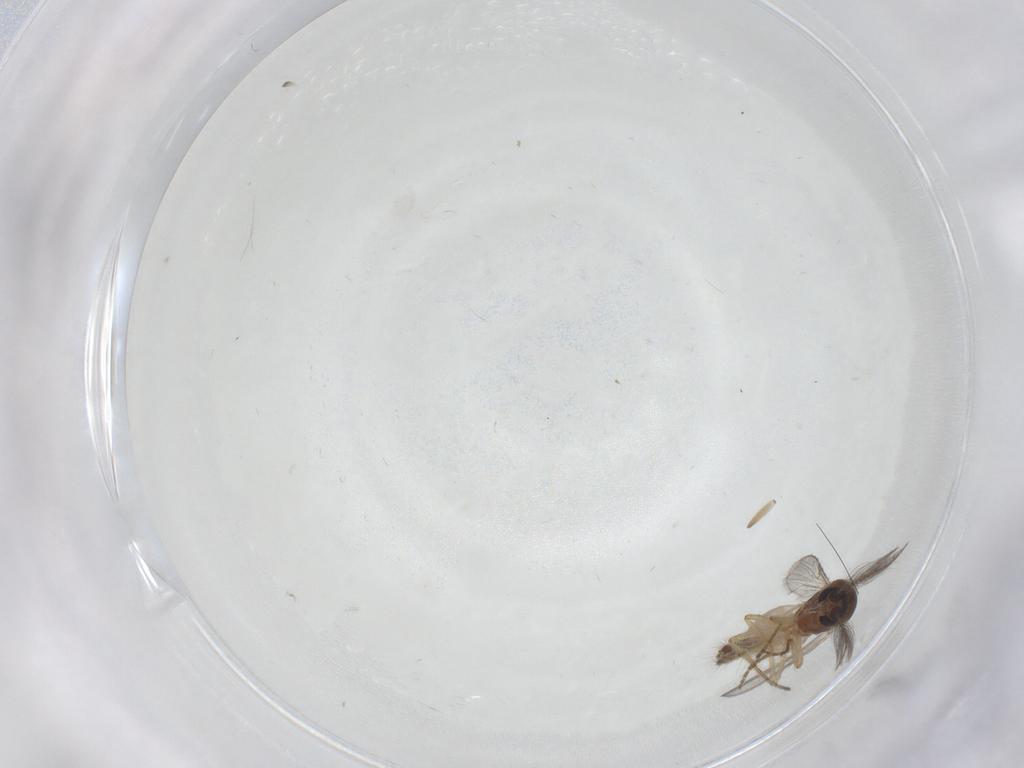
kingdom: Animalia
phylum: Arthropoda
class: Insecta
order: Diptera
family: Ceratopogonidae
